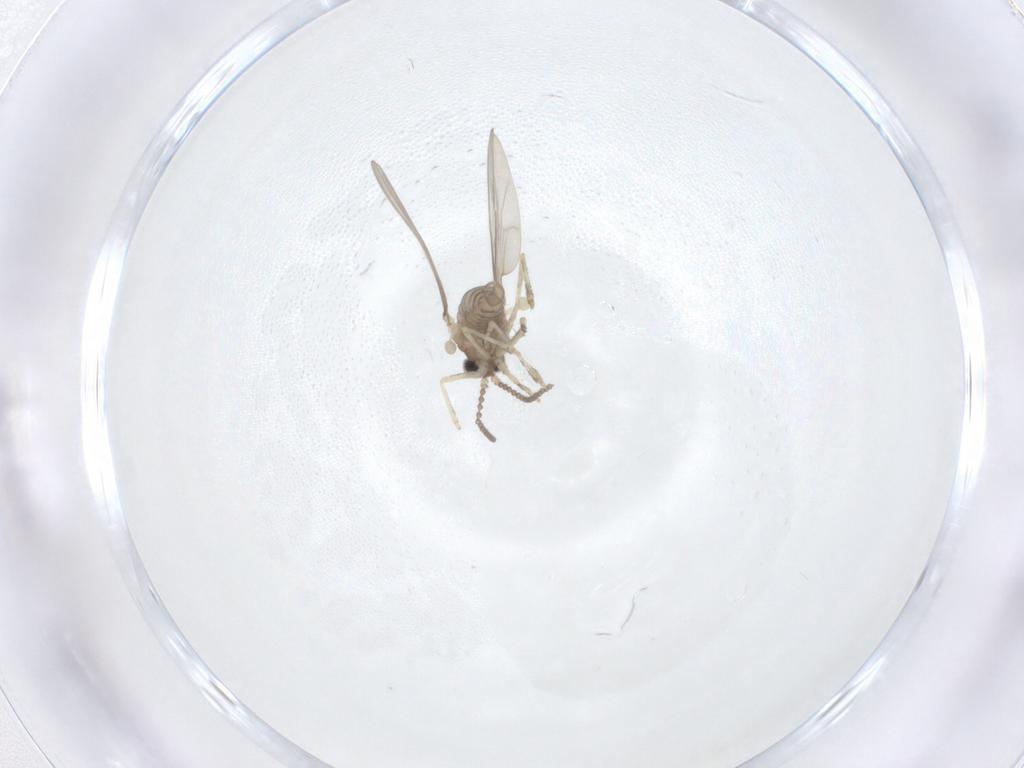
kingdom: Animalia
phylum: Arthropoda
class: Insecta
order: Diptera
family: Cecidomyiidae
